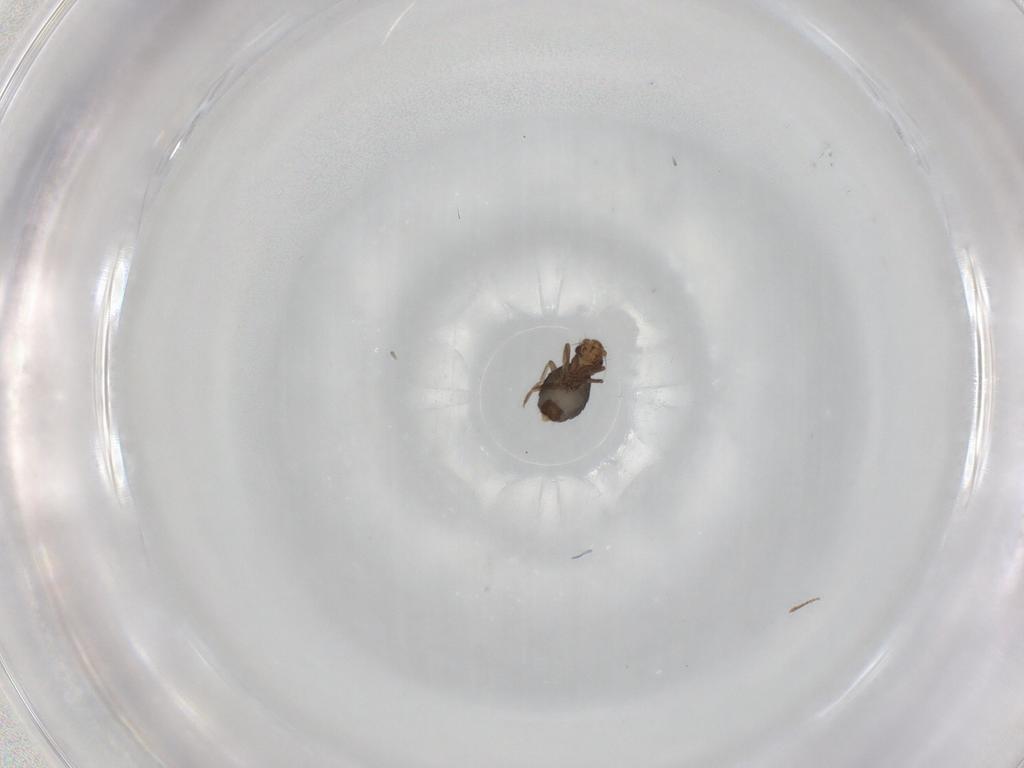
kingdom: Animalia
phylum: Arthropoda
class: Insecta
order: Diptera
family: Phoridae
